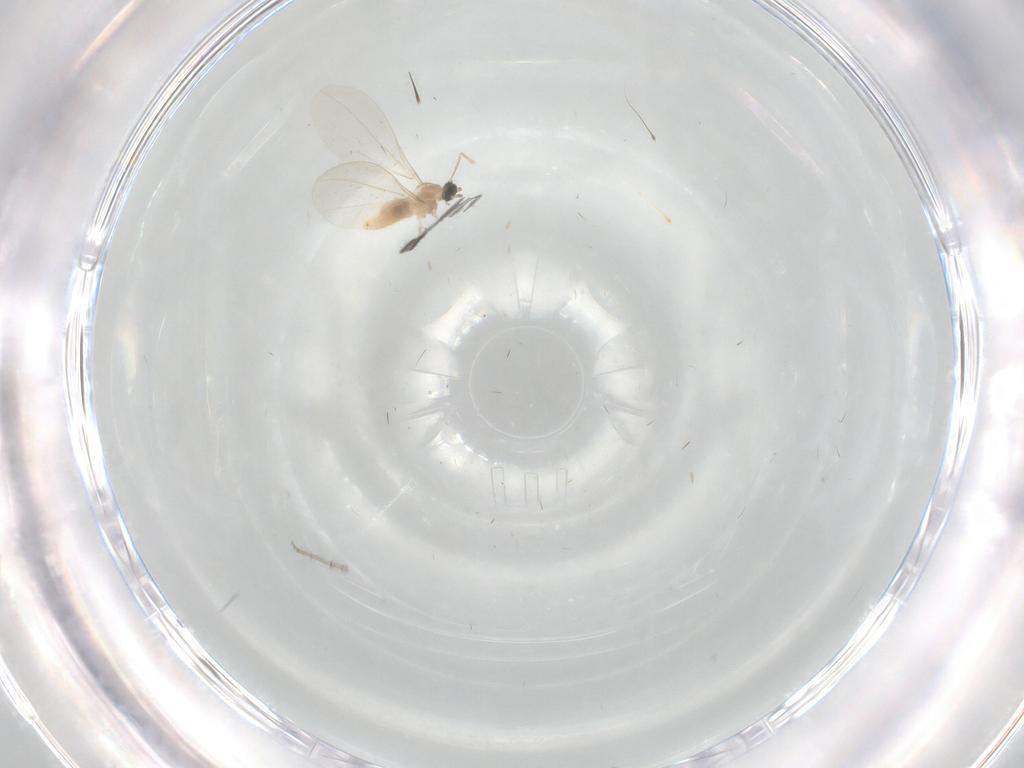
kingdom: Animalia
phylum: Arthropoda
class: Insecta
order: Diptera
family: Cecidomyiidae
